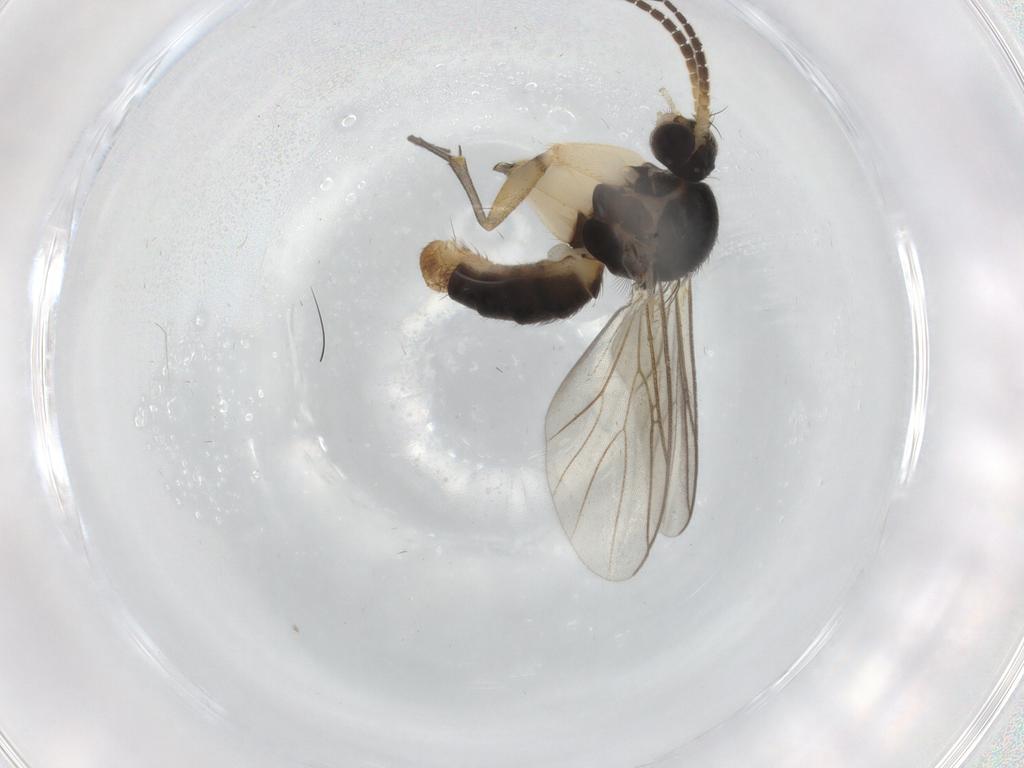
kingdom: Animalia
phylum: Arthropoda
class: Insecta
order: Diptera
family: Mycetophilidae
